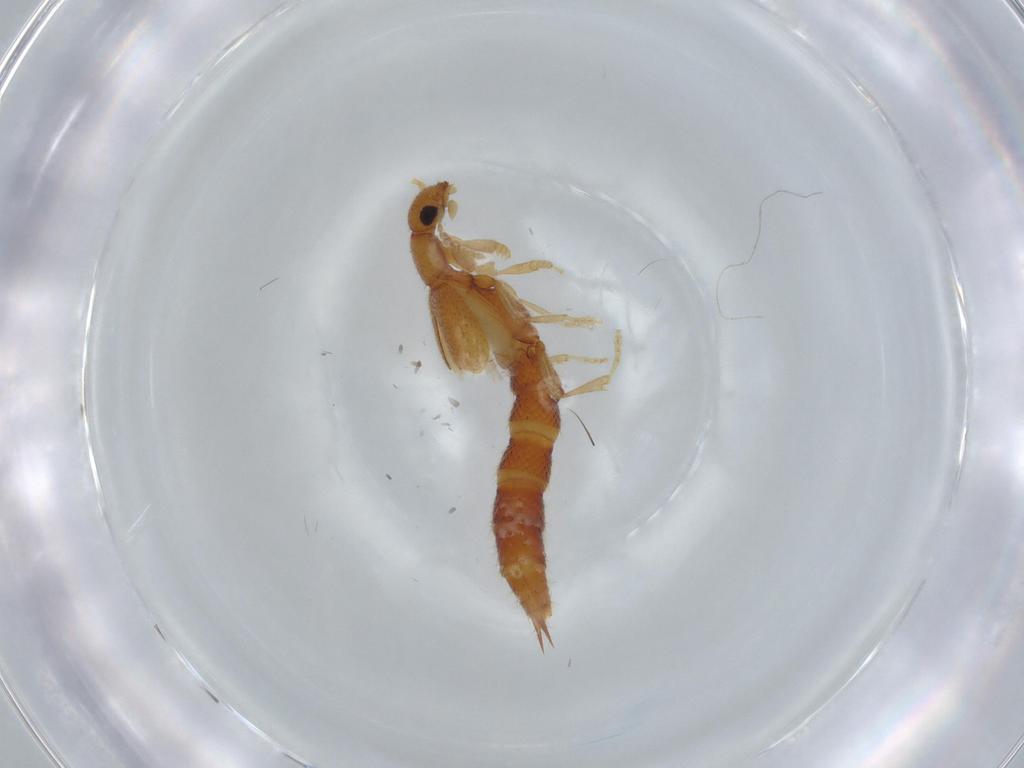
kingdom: Animalia
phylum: Arthropoda
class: Insecta
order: Coleoptera
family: Staphylinidae
